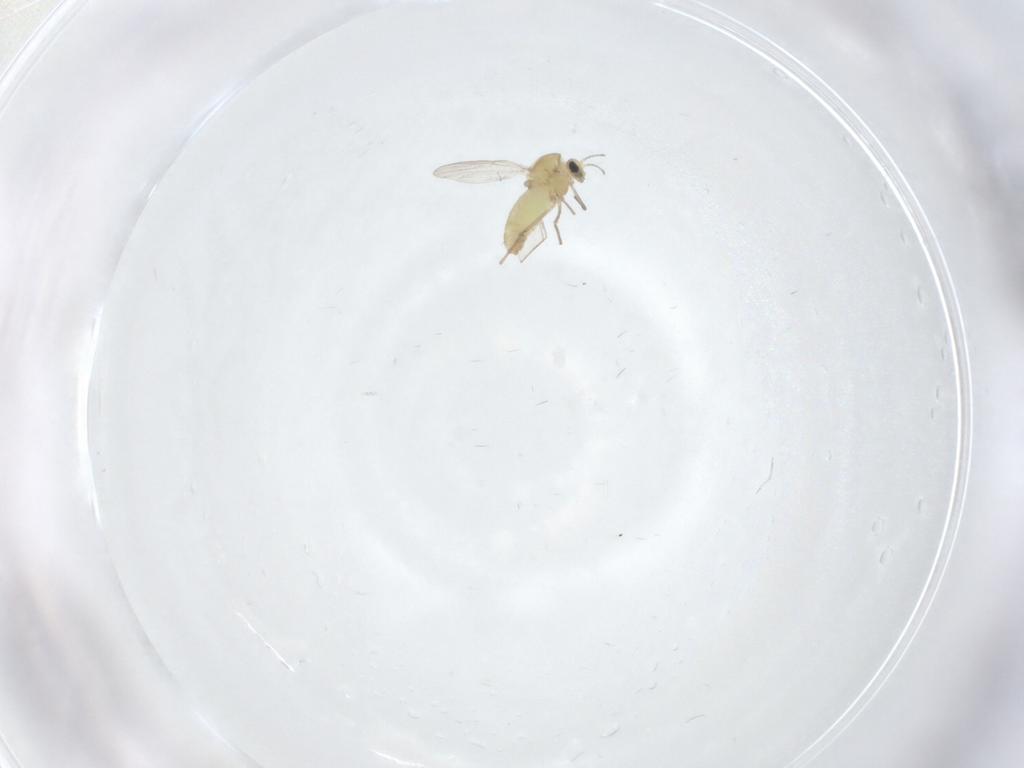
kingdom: Animalia
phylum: Arthropoda
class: Insecta
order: Diptera
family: Chironomidae
